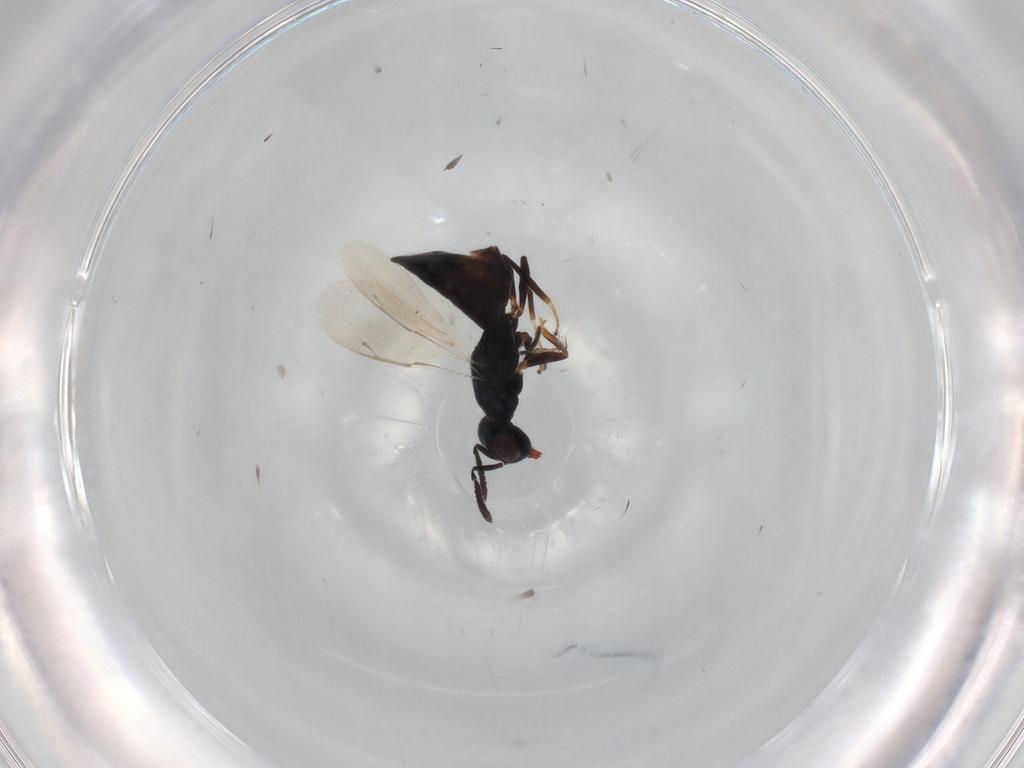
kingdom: Animalia
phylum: Arthropoda
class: Insecta
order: Hymenoptera
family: Pteromalidae
